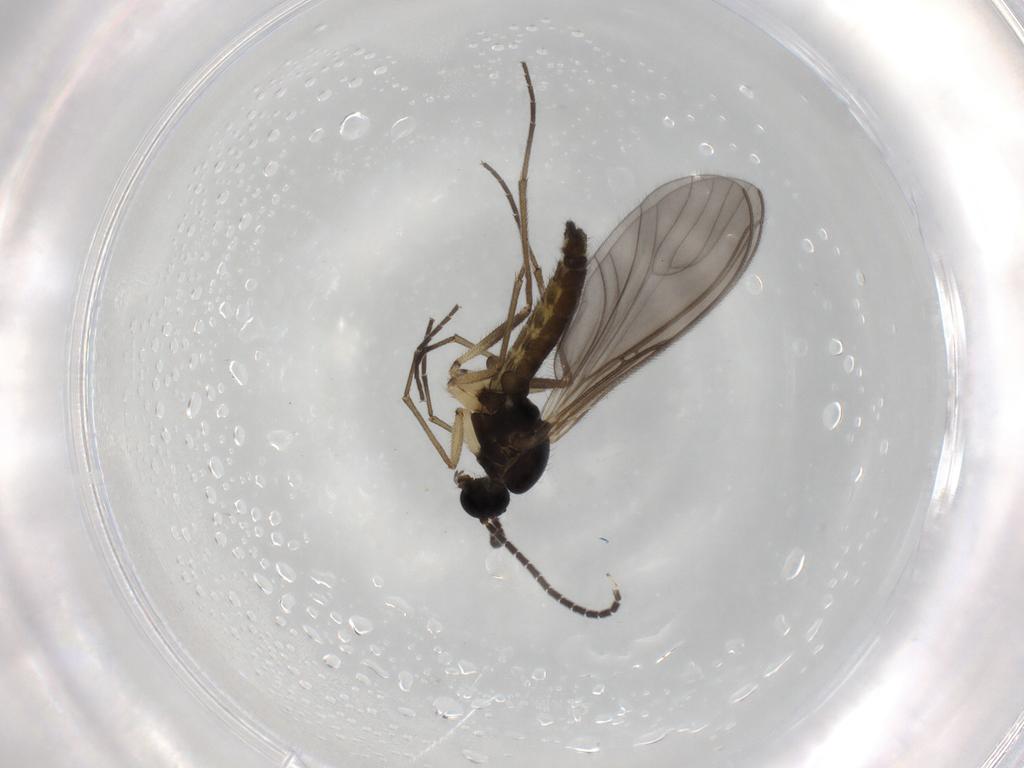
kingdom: Animalia
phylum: Arthropoda
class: Insecta
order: Diptera
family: Sciaridae
